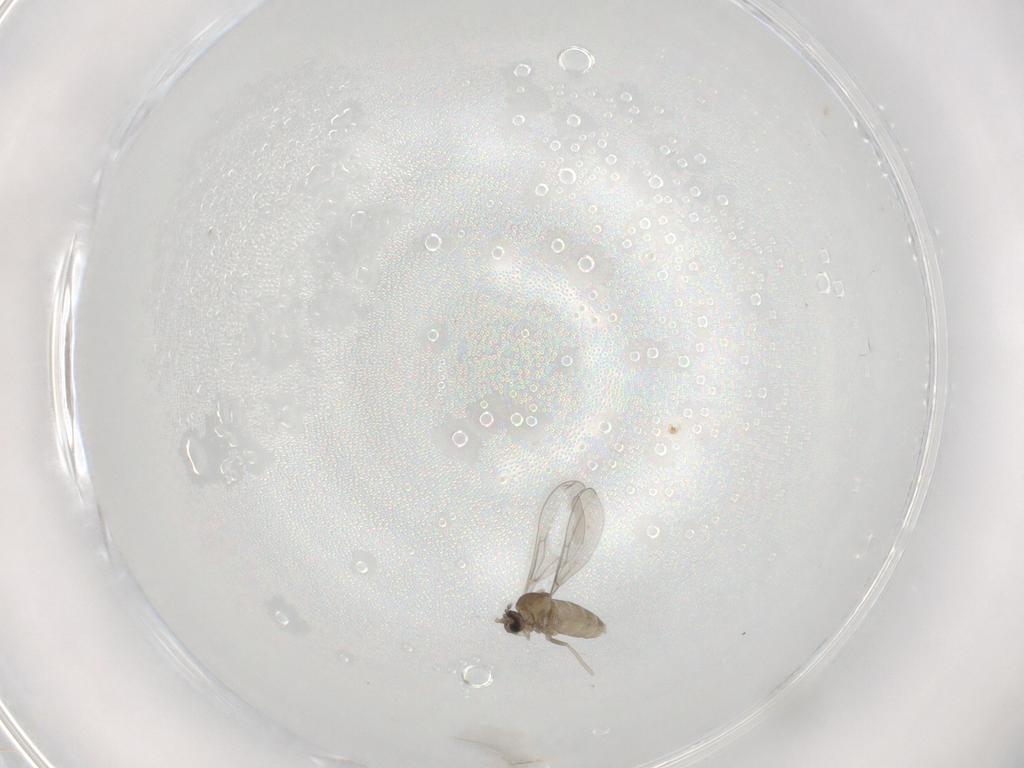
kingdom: Animalia
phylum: Arthropoda
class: Insecta
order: Diptera
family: Cecidomyiidae
